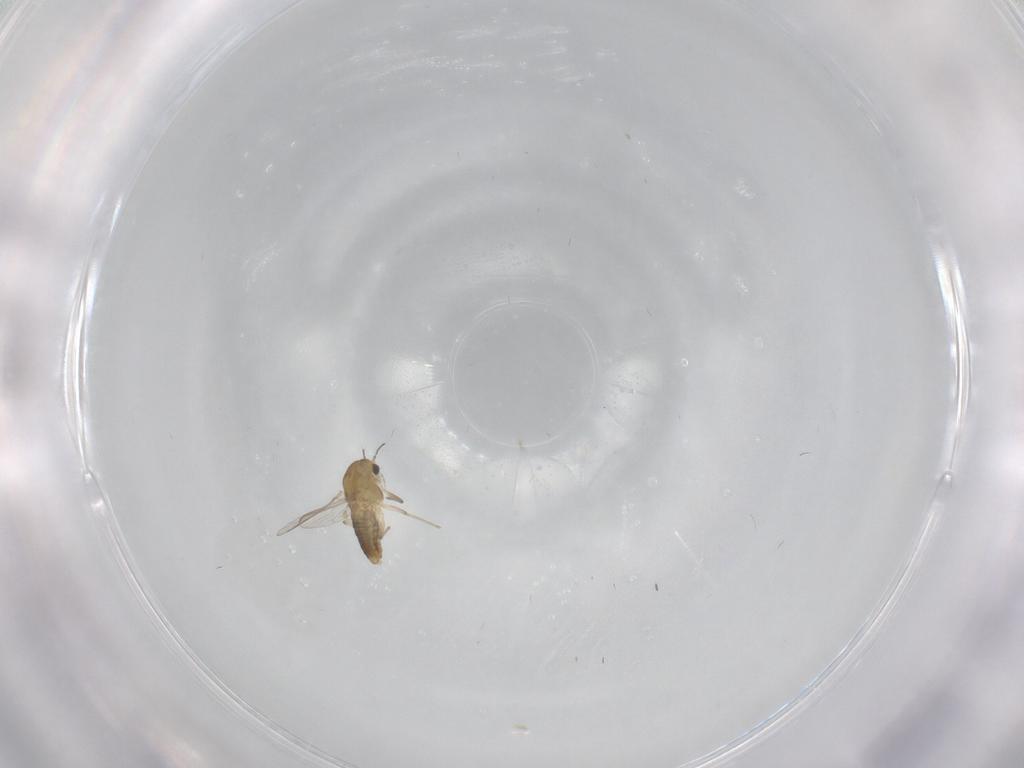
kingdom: Animalia
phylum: Arthropoda
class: Insecta
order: Diptera
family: Chironomidae
